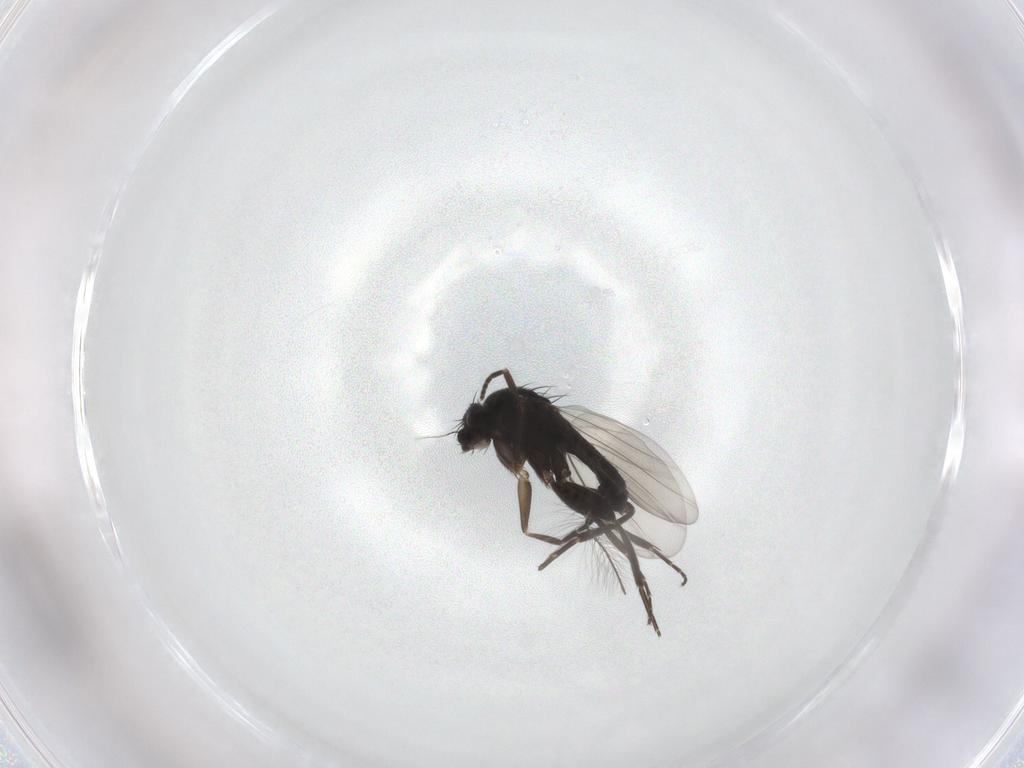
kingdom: Animalia
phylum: Arthropoda
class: Insecta
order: Diptera
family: Phoridae
